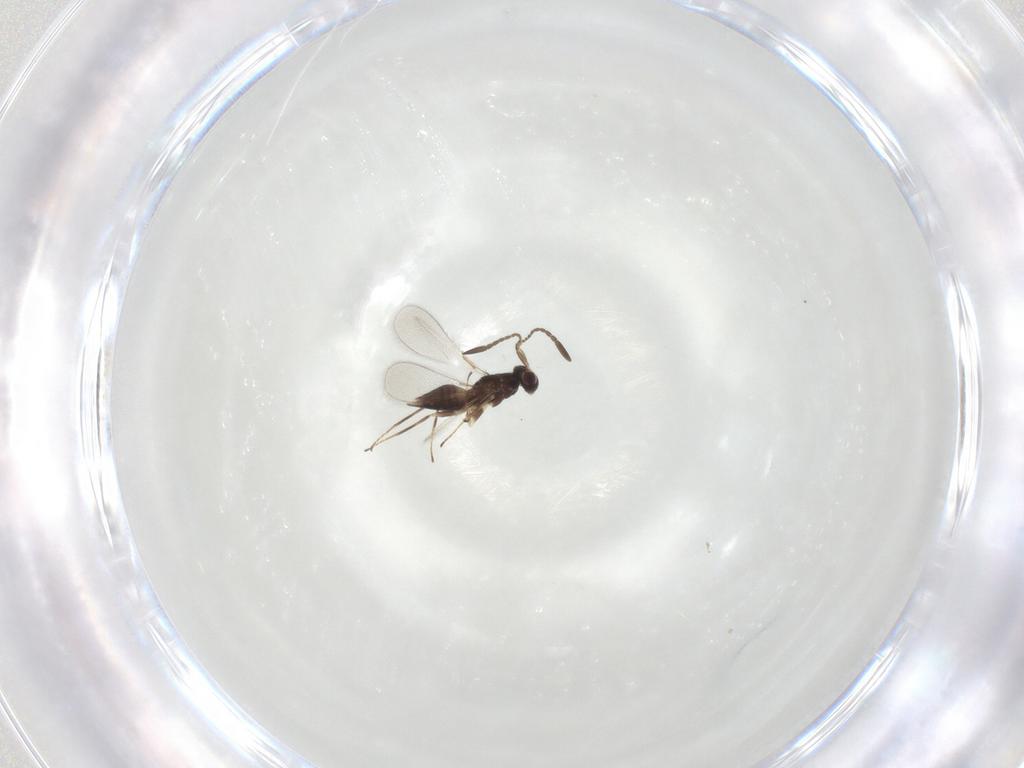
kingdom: Animalia
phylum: Arthropoda
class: Insecta
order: Hymenoptera
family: Mymaridae
